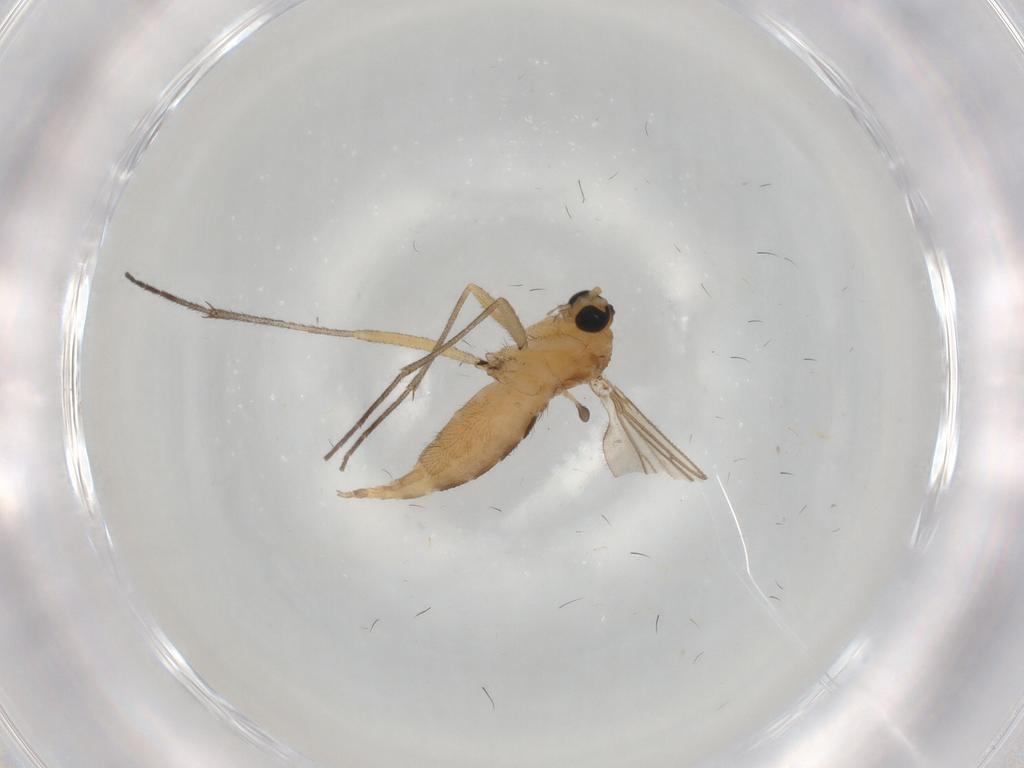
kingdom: Animalia
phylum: Arthropoda
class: Insecta
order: Diptera
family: Sciaridae
